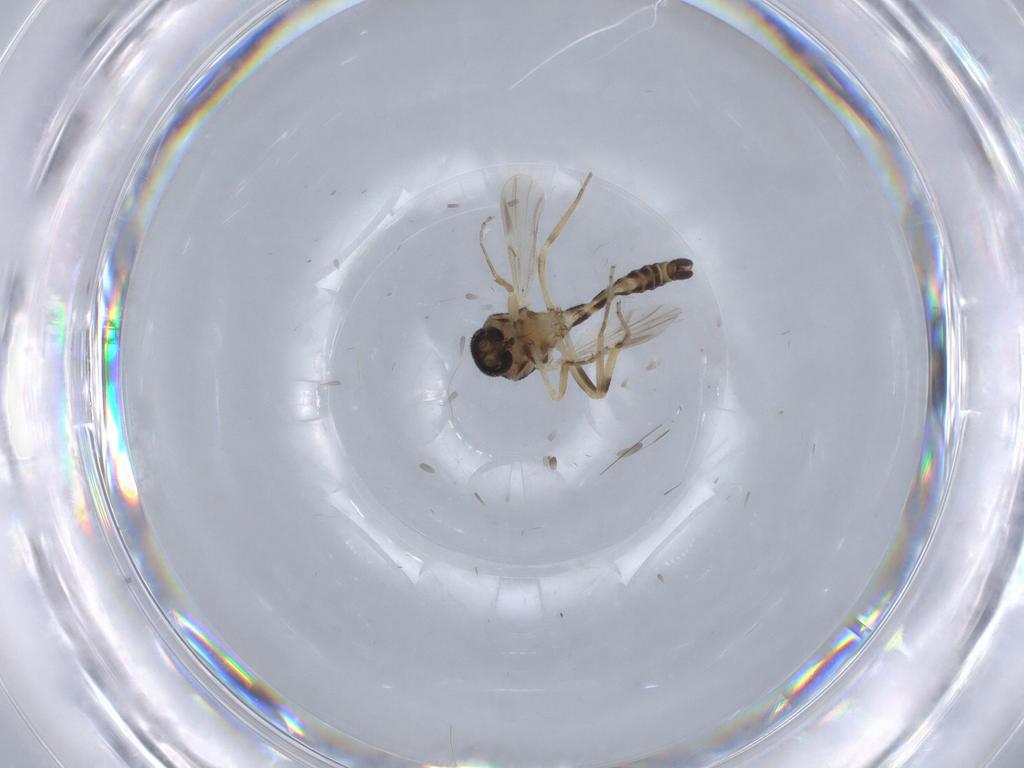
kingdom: Animalia
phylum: Arthropoda
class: Insecta
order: Diptera
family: Ceratopogonidae
